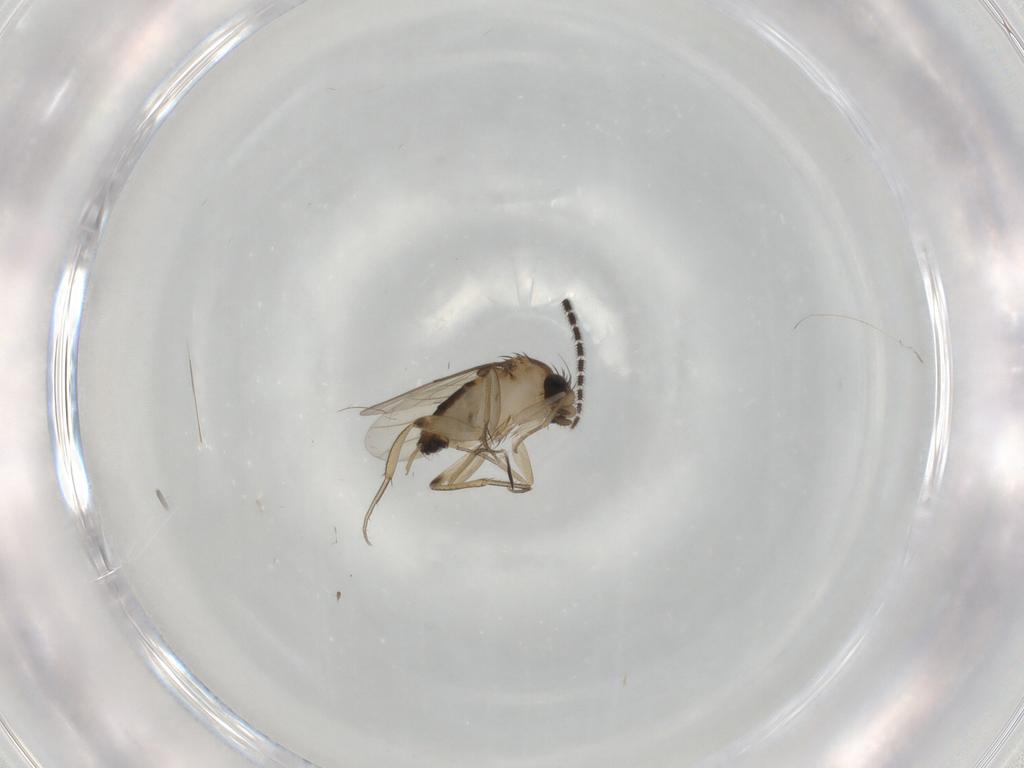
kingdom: Animalia
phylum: Arthropoda
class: Insecta
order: Diptera
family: Phoridae
